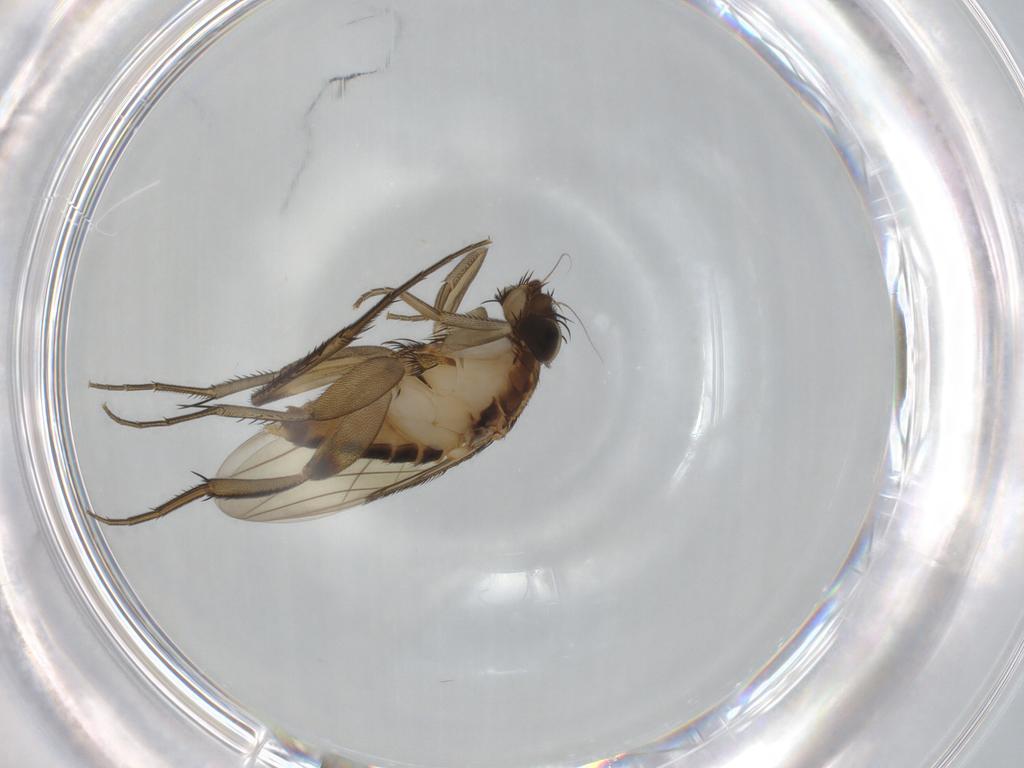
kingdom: Animalia
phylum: Arthropoda
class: Insecta
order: Diptera
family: Phoridae
